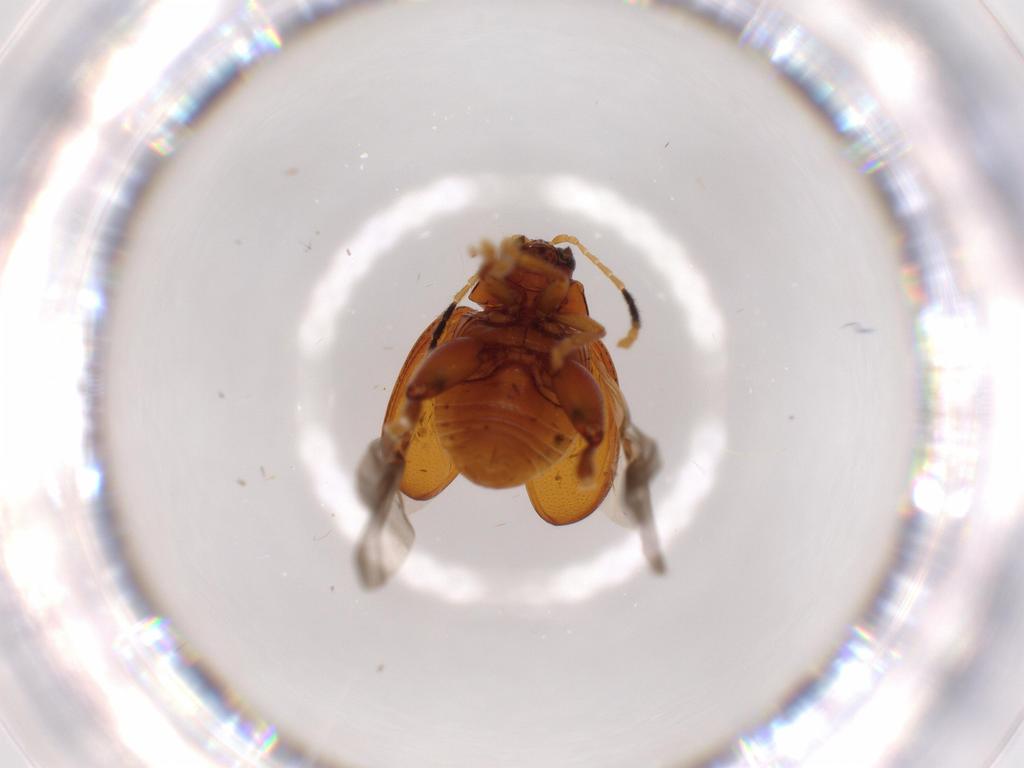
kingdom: Animalia
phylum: Arthropoda
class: Insecta
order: Coleoptera
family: Chrysomelidae
